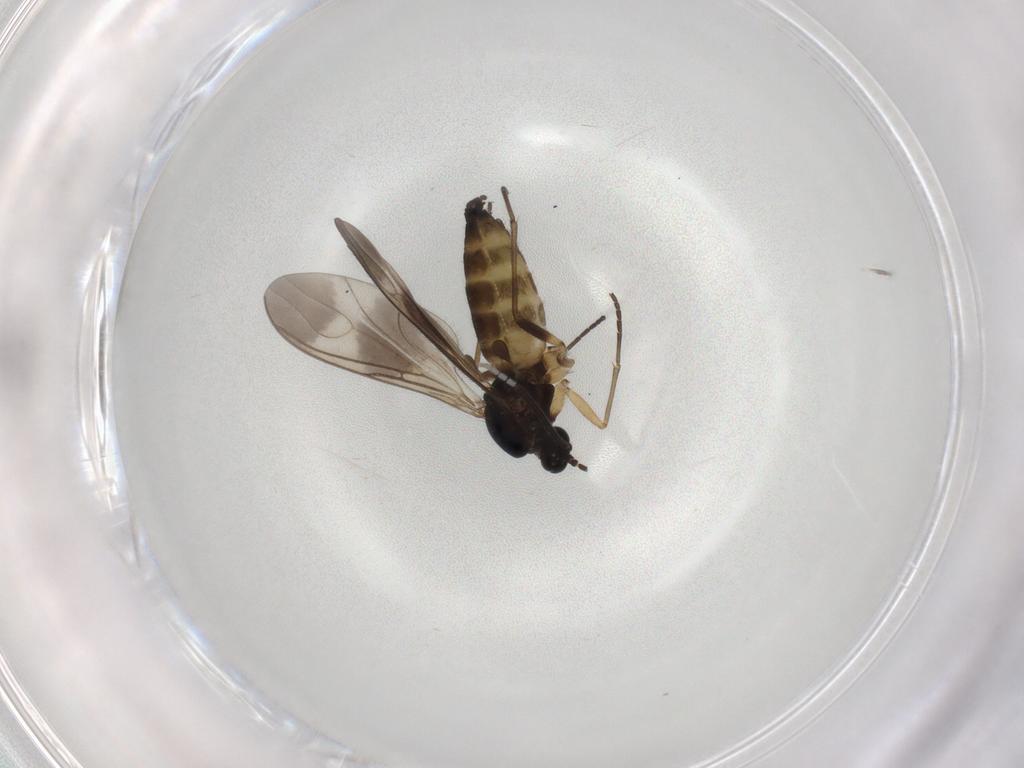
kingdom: Animalia
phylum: Arthropoda
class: Insecta
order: Diptera
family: Sciaridae
